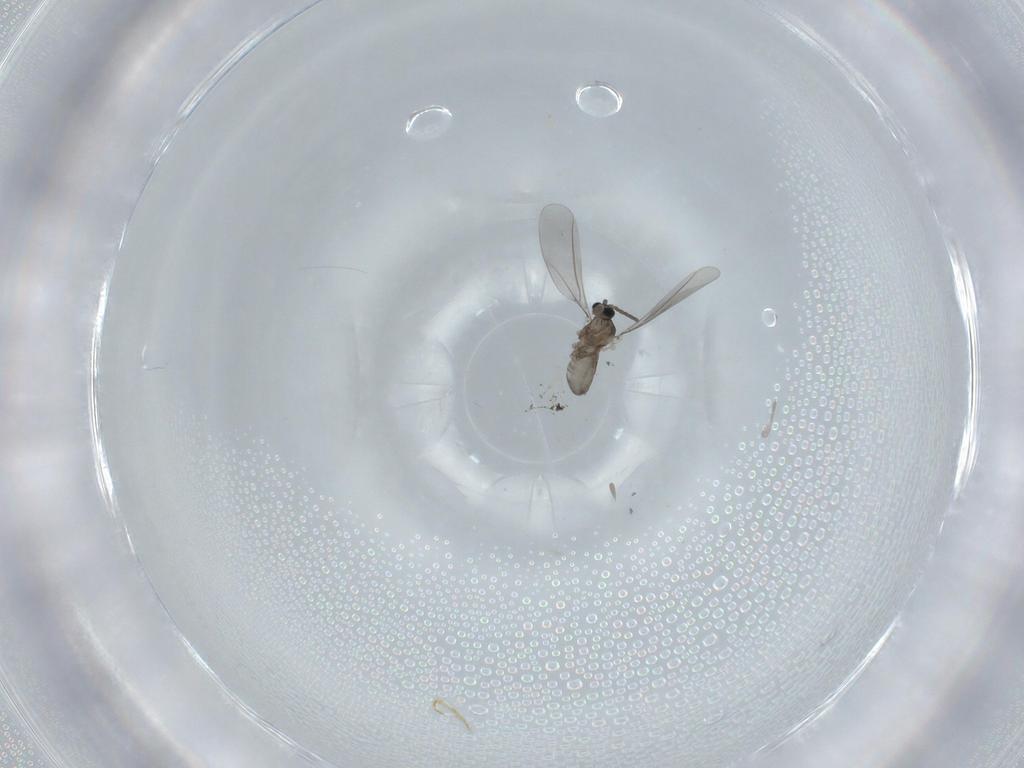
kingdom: Animalia
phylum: Arthropoda
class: Insecta
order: Diptera
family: Cecidomyiidae
